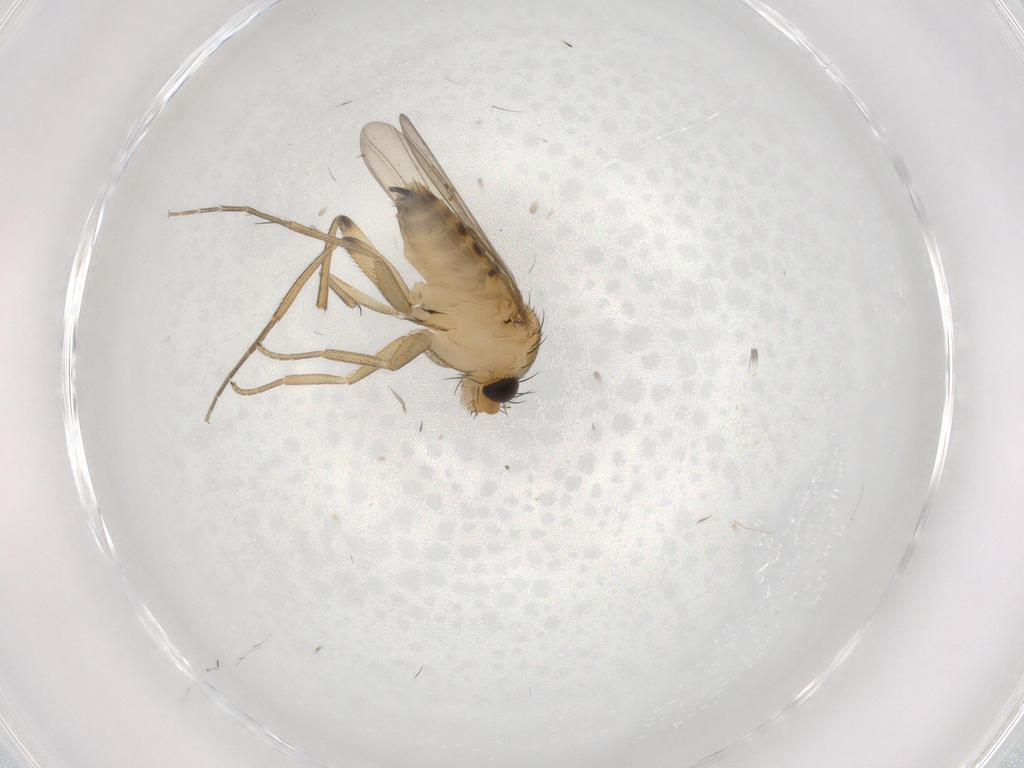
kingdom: Animalia
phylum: Arthropoda
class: Insecta
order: Diptera
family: Phoridae
